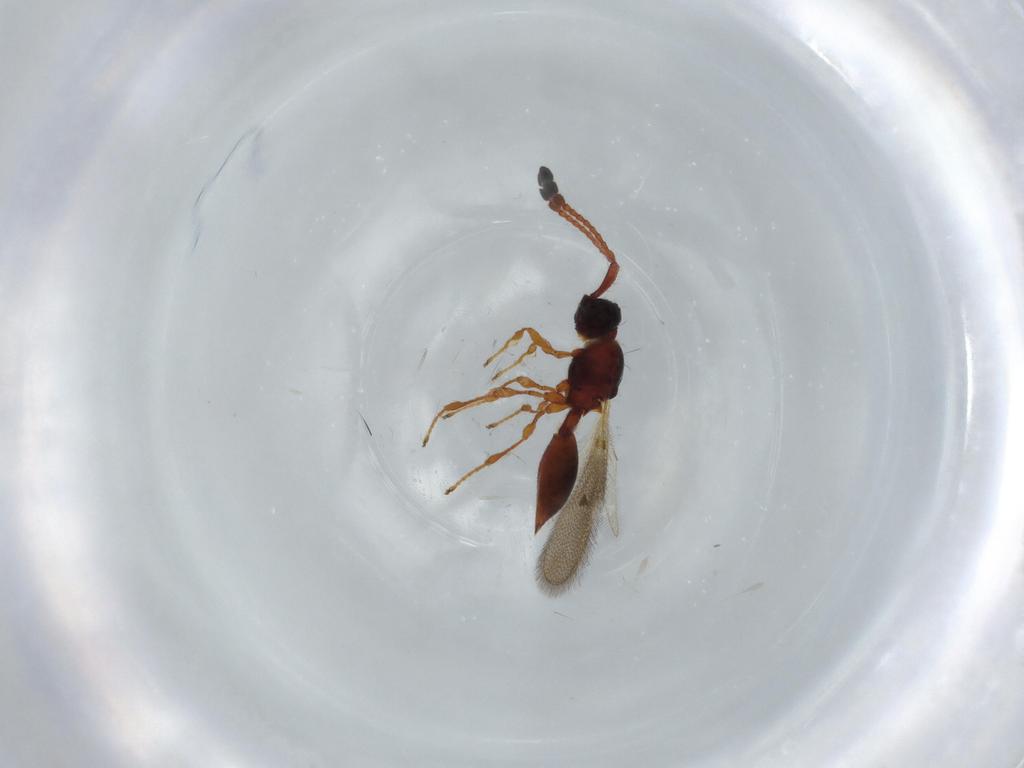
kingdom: Animalia
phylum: Arthropoda
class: Insecta
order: Hymenoptera
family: Diapriidae
